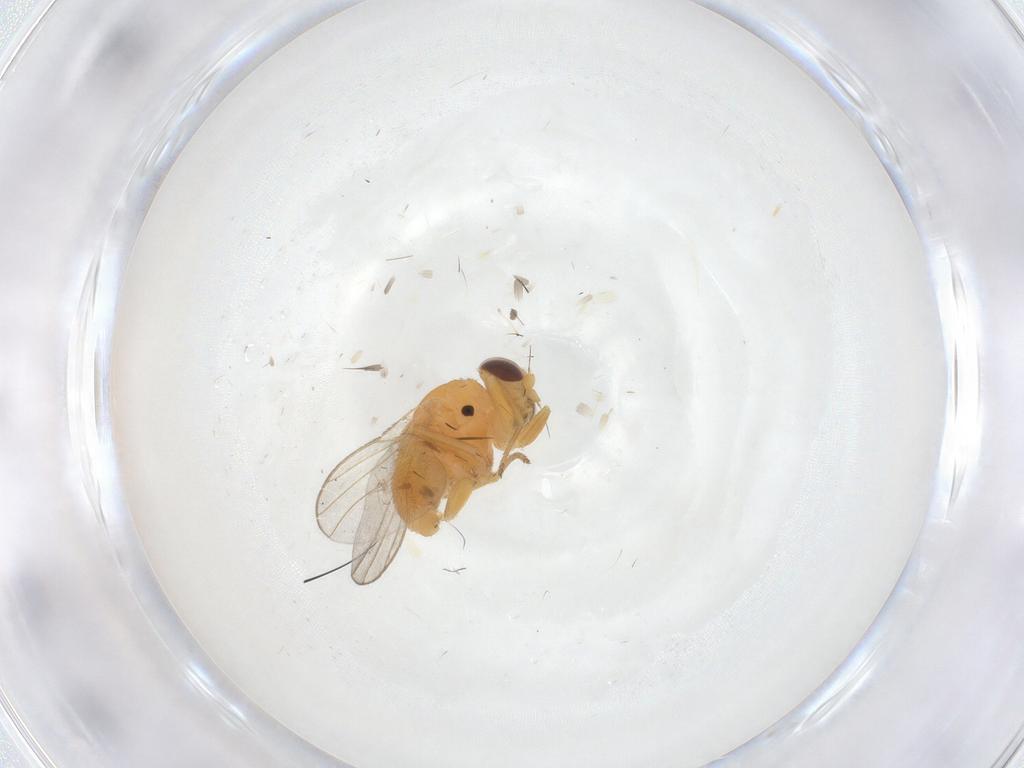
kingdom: Animalia
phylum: Arthropoda
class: Insecta
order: Diptera
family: Chloropidae
